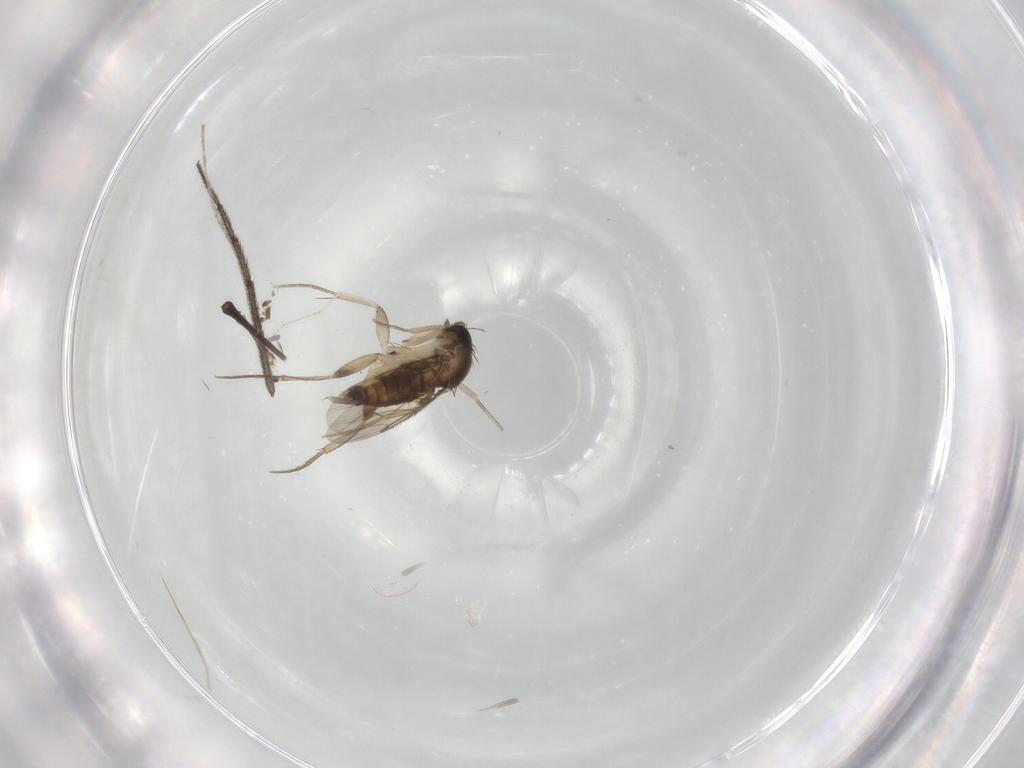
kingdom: Animalia
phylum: Arthropoda
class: Insecta
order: Diptera
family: Phoridae
